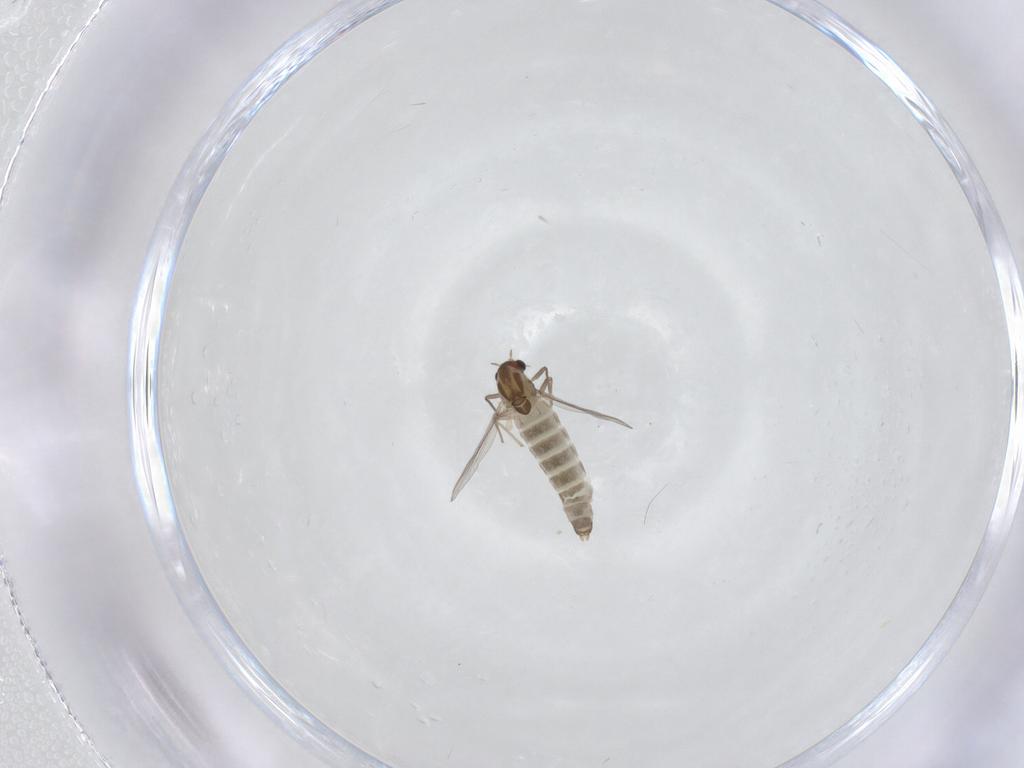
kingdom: Animalia
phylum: Arthropoda
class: Insecta
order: Diptera
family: Chironomidae
